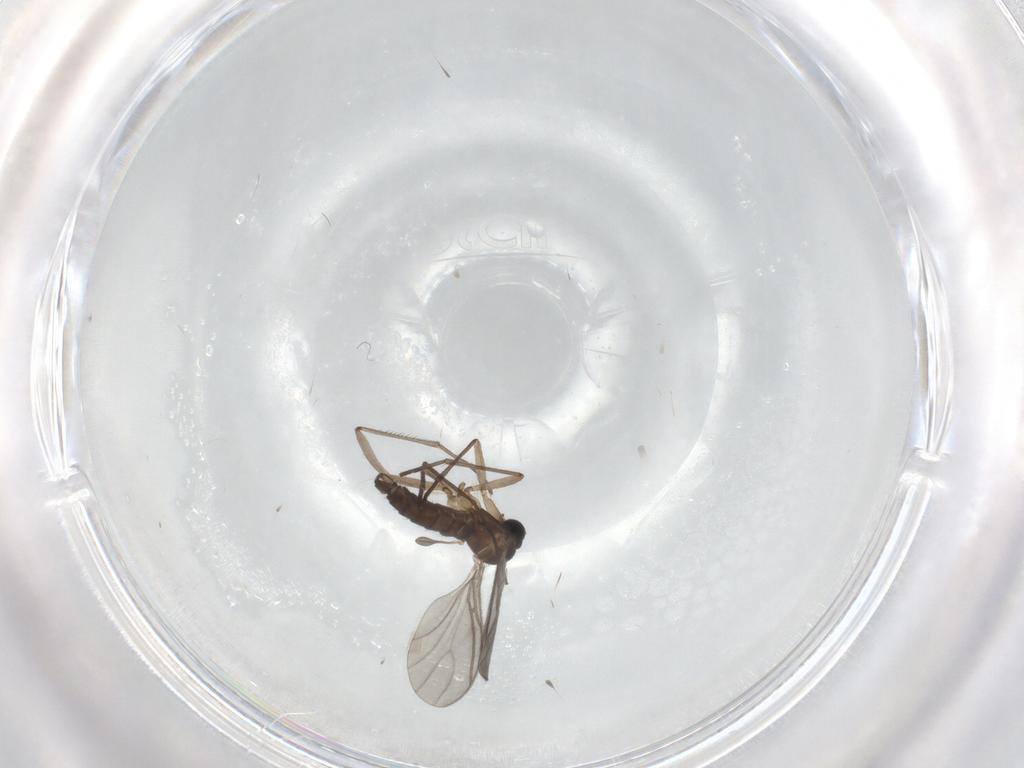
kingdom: Animalia
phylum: Arthropoda
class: Insecta
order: Diptera
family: Sciaridae
